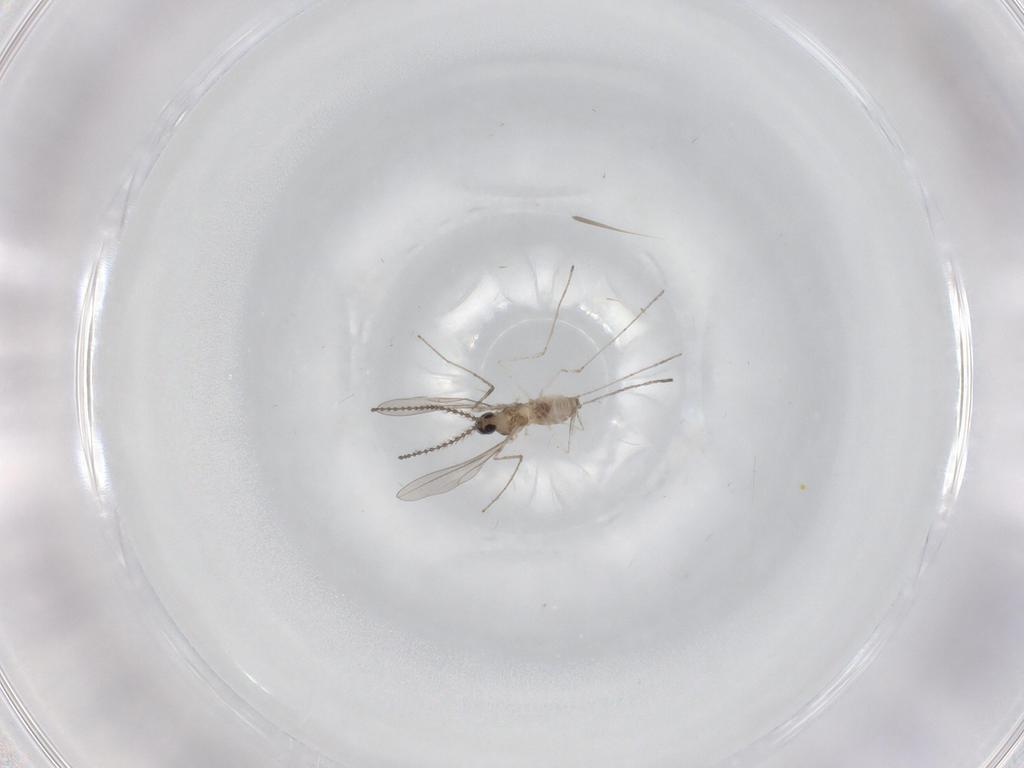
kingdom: Animalia
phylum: Arthropoda
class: Insecta
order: Diptera
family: Cecidomyiidae
